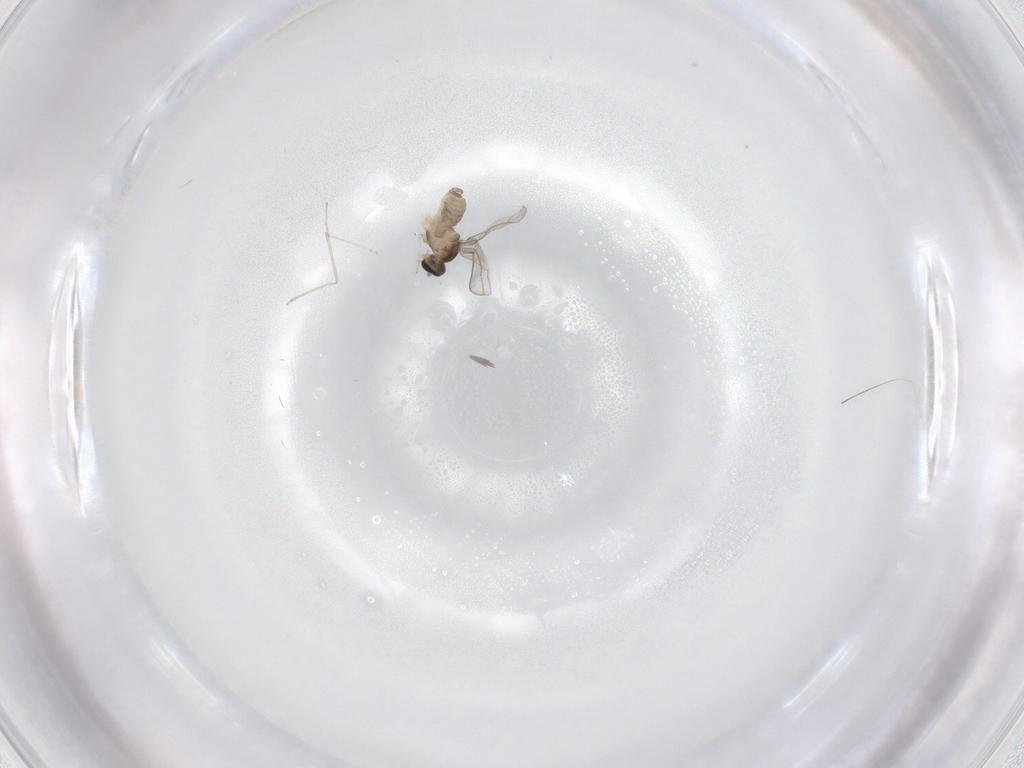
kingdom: Animalia
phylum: Arthropoda
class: Insecta
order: Diptera
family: Cecidomyiidae
